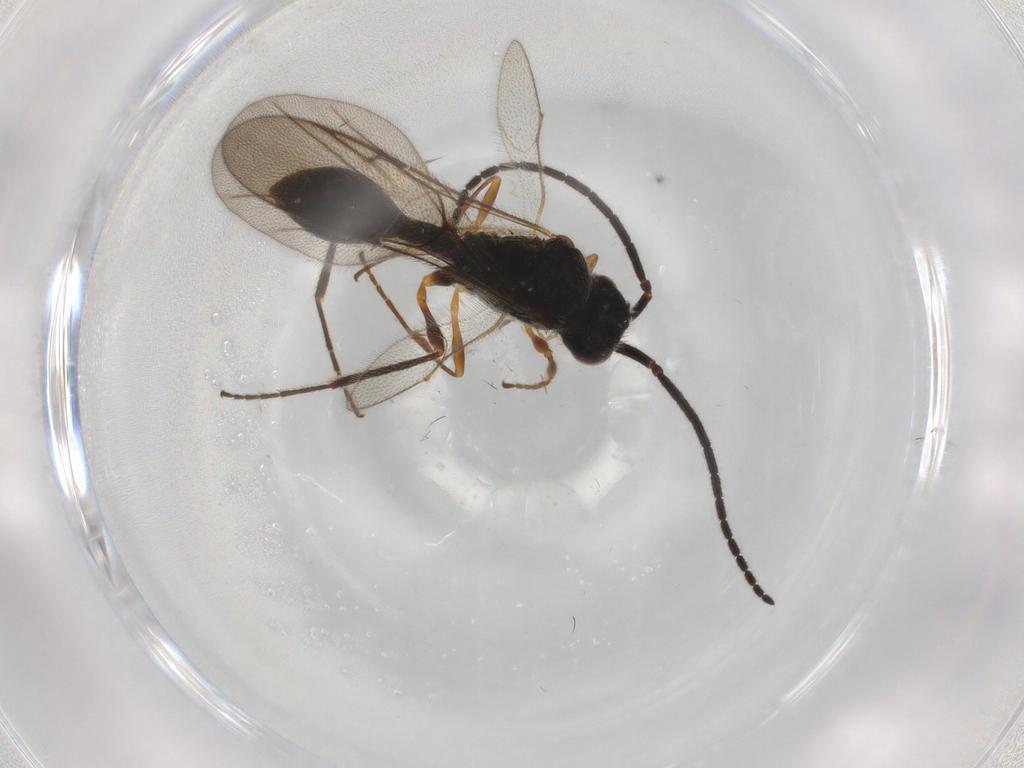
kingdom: Animalia
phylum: Arthropoda
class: Insecta
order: Hymenoptera
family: Diapriidae
